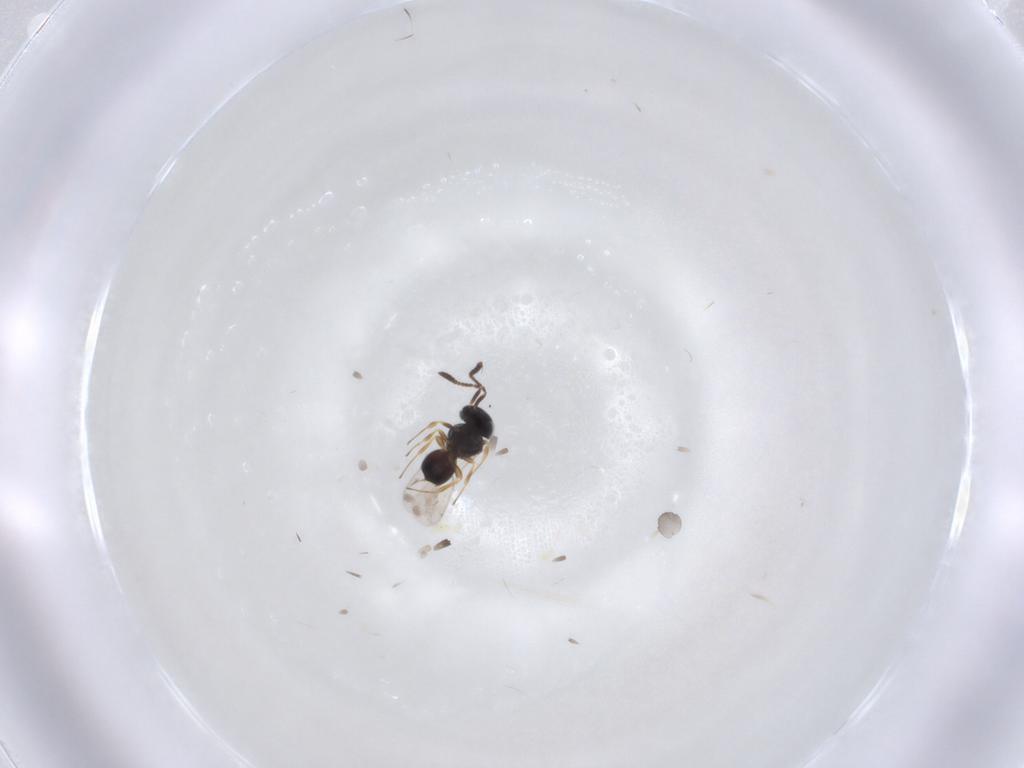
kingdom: Animalia
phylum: Arthropoda
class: Insecta
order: Hymenoptera
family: Scelionidae
